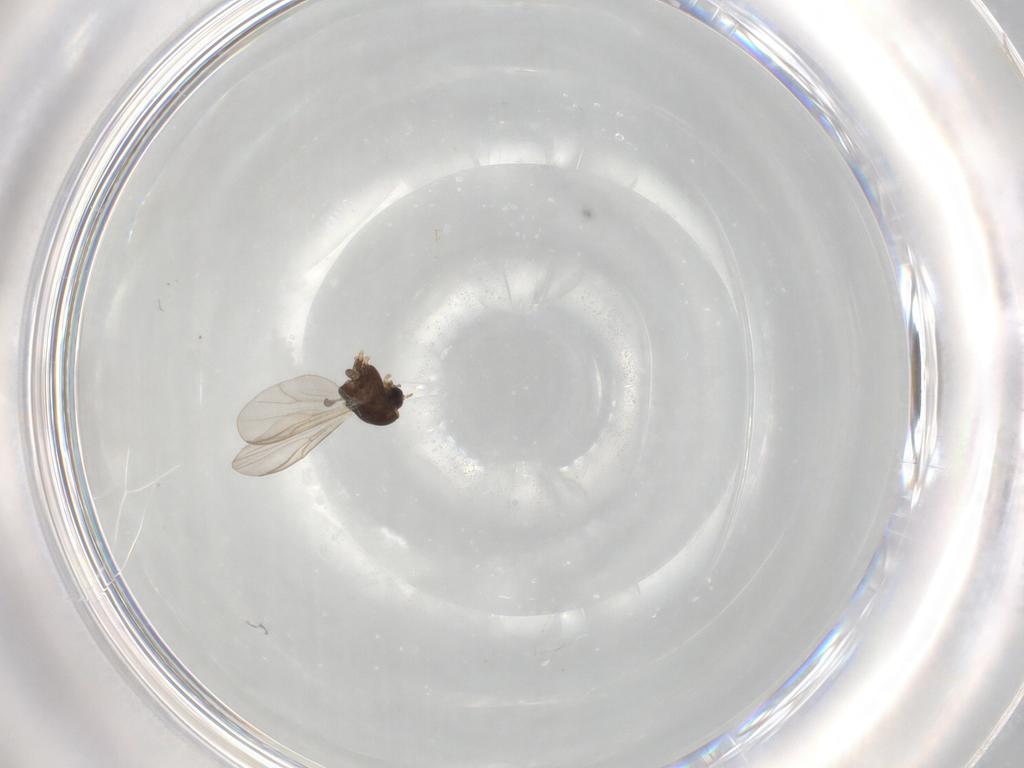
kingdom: Animalia
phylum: Arthropoda
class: Insecta
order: Diptera
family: Chironomidae
